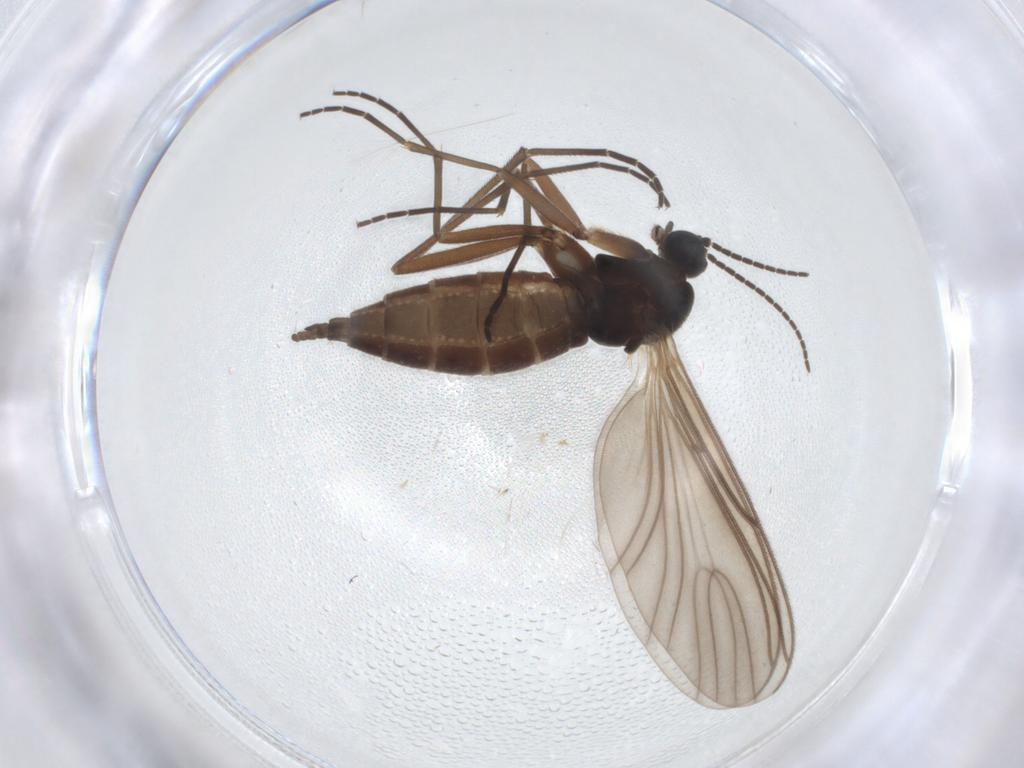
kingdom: Animalia
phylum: Arthropoda
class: Insecta
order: Diptera
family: Sciaridae
